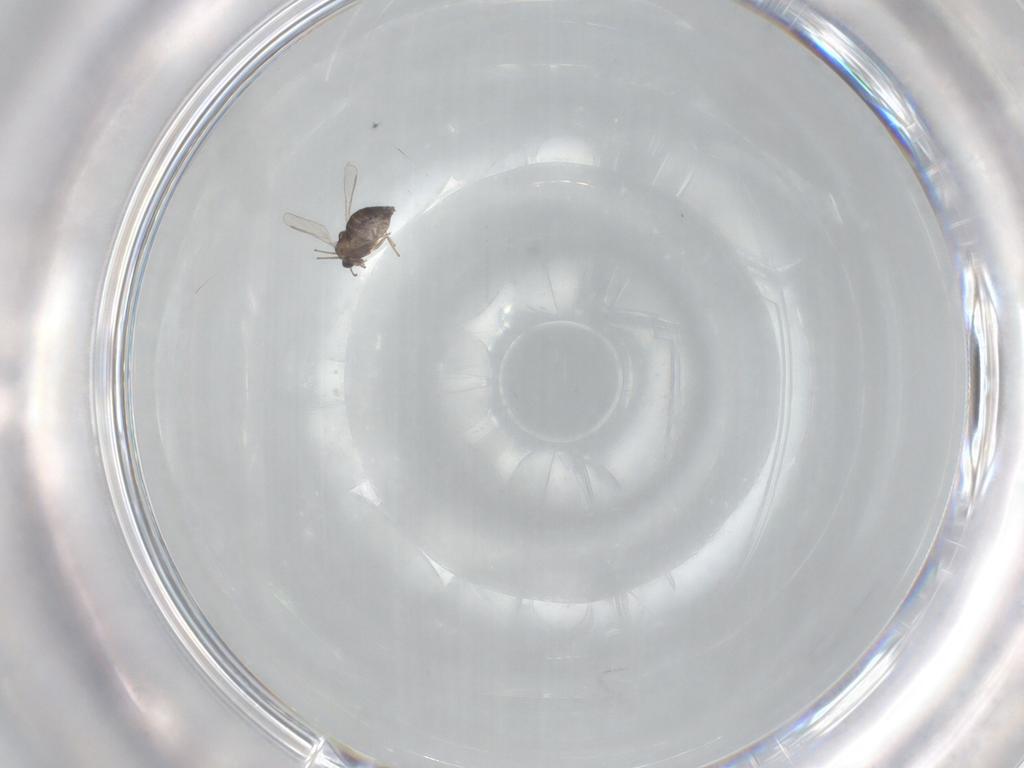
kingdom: Animalia
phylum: Arthropoda
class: Insecta
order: Diptera
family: Chironomidae
